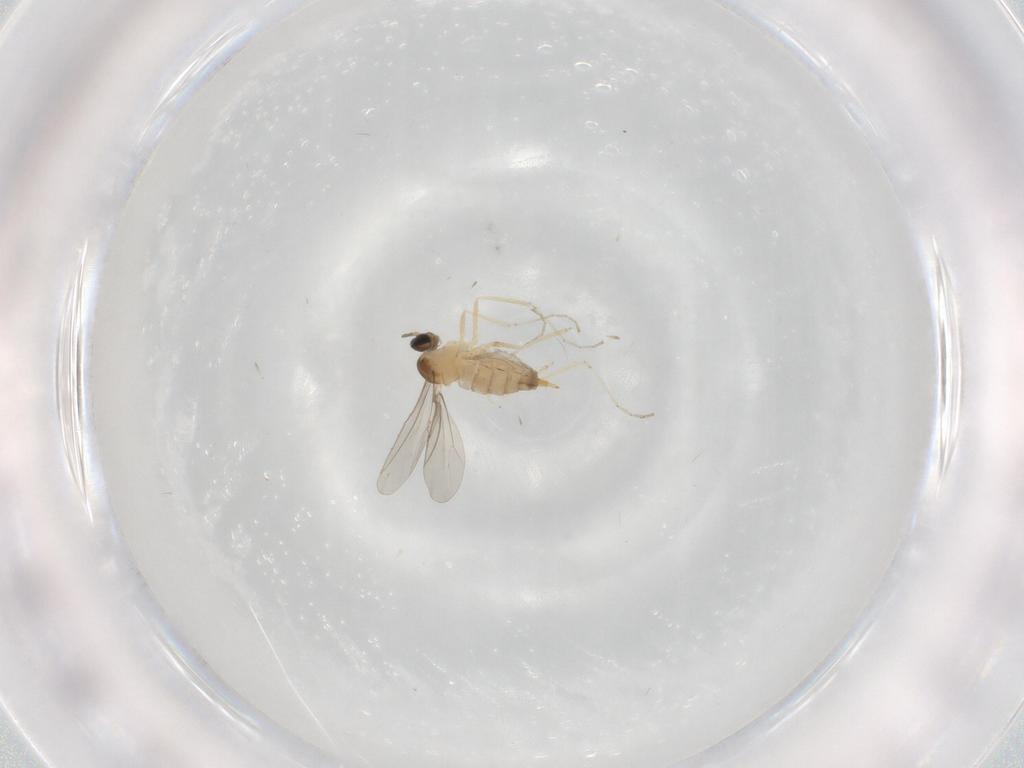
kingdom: Animalia
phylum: Arthropoda
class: Insecta
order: Diptera
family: Cecidomyiidae
